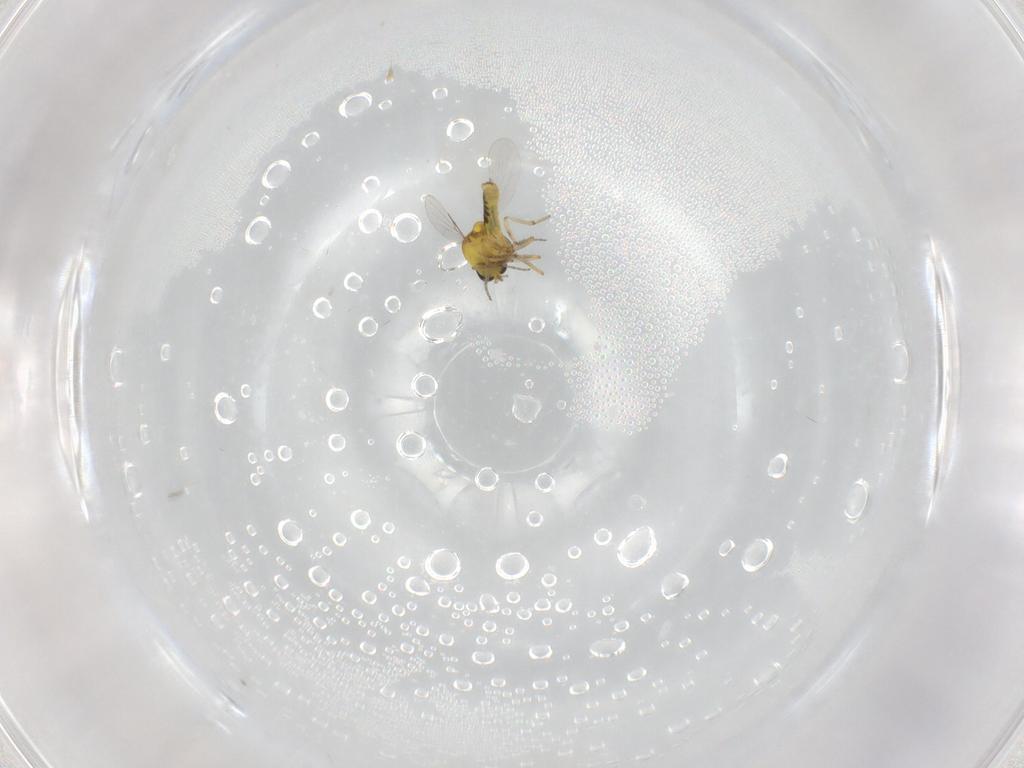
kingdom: Animalia
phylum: Arthropoda
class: Insecta
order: Diptera
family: Ceratopogonidae
